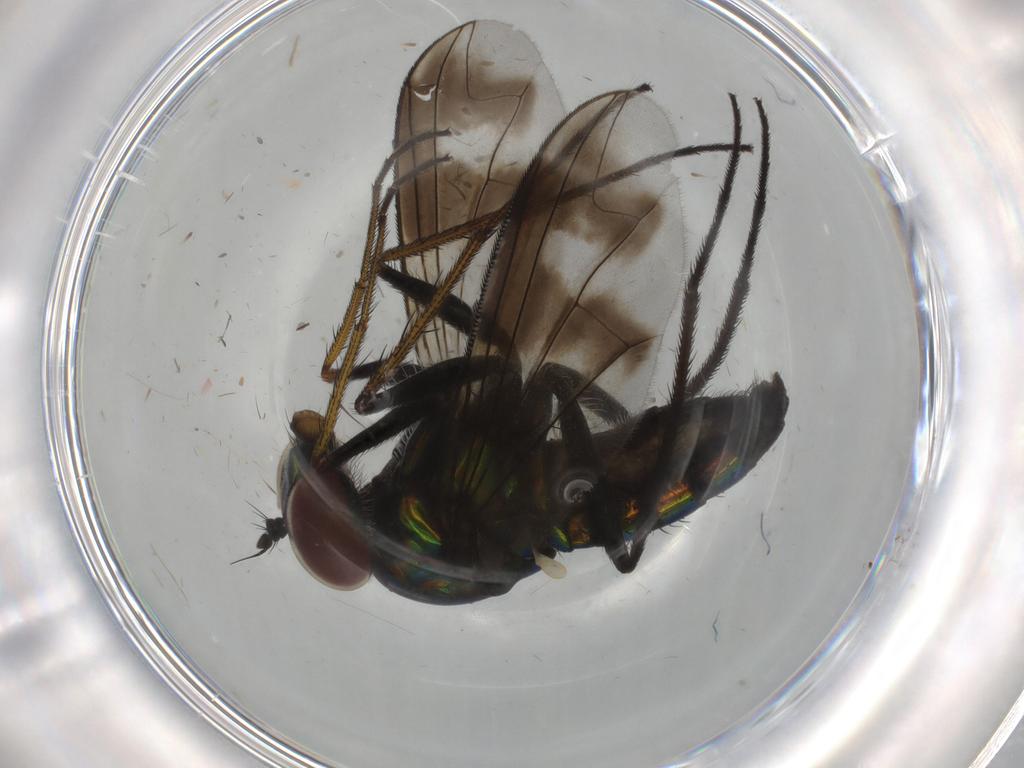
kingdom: Animalia
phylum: Arthropoda
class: Insecta
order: Diptera
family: Dolichopodidae
